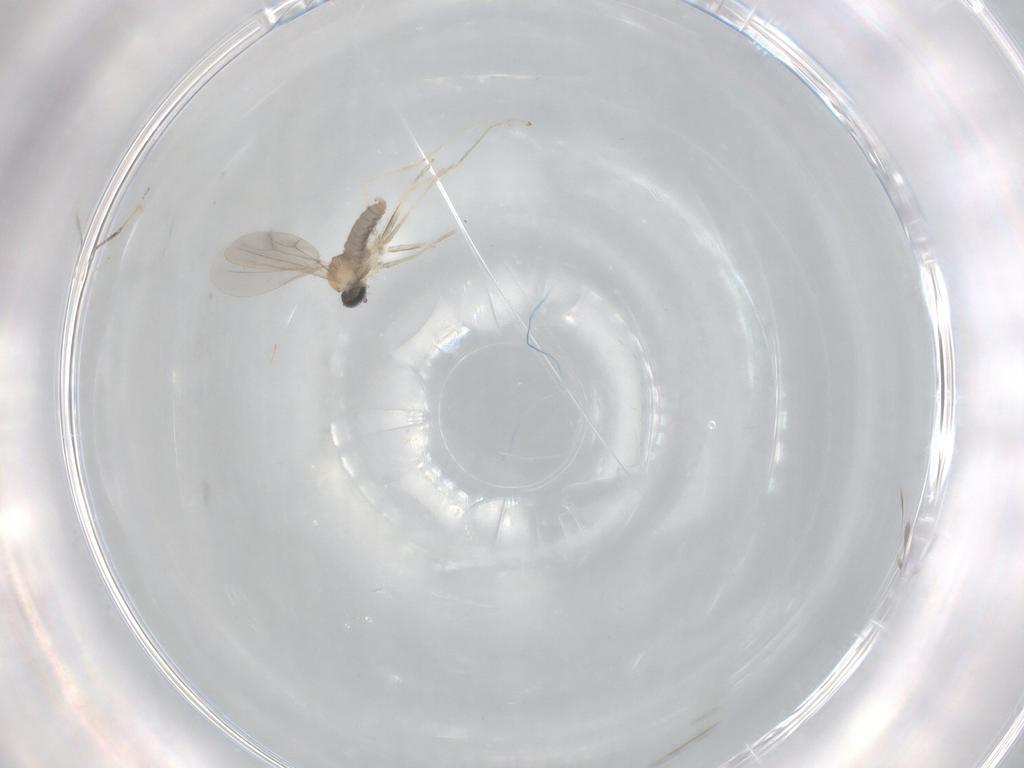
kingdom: Animalia
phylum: Arthropoda
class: Insecta
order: Diptera
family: Cecidomyiidae
